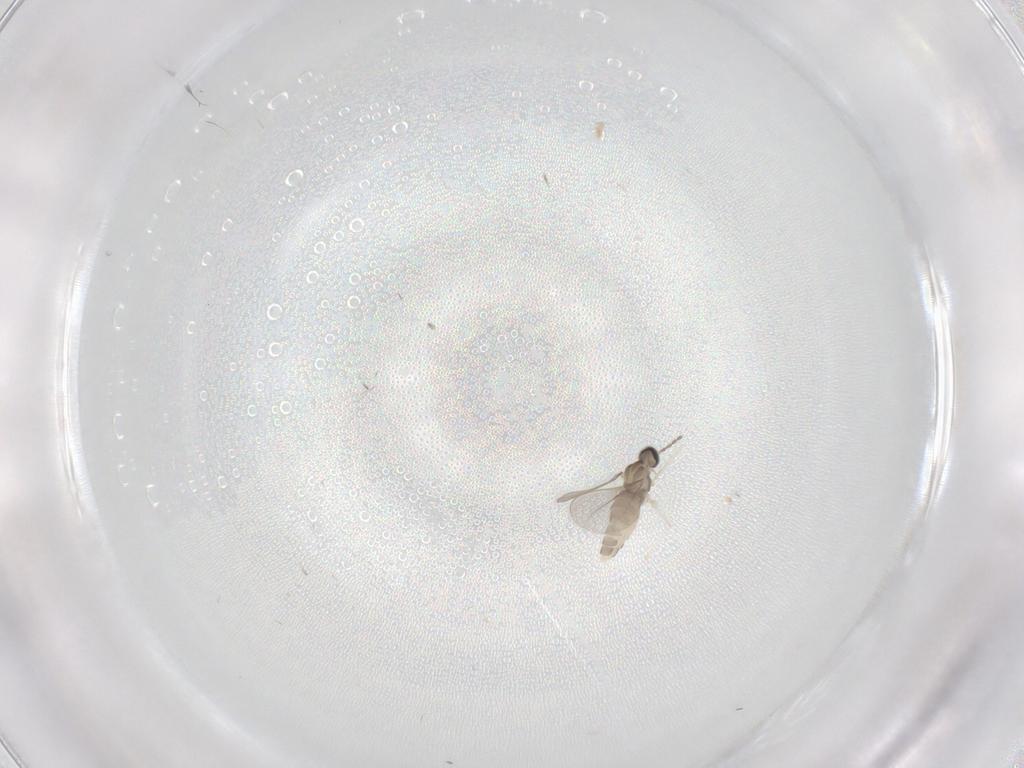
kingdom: Animalia
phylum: Arthropoda
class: Insecta
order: Diptera
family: Cecidomyiidae
